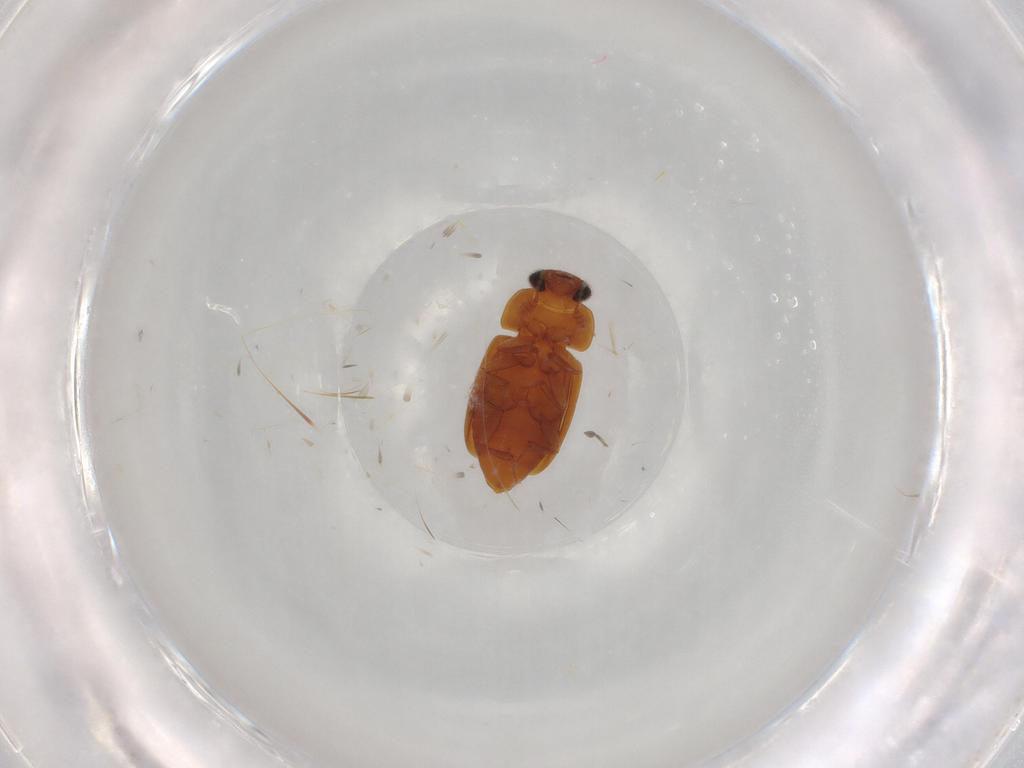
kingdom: Animalia
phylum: Arthropoda
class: Insecta
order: Coleoptera
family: Nitidulidae
